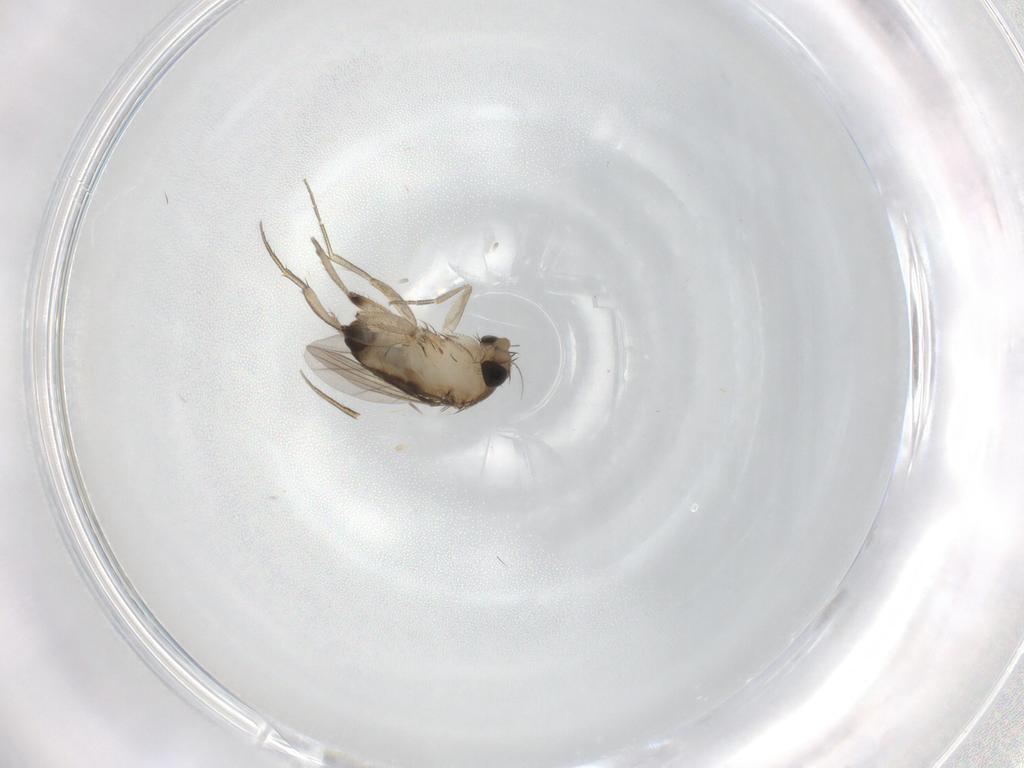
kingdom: Animalia
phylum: Arthropoda
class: Insecta
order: Diptera
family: Phoridae
